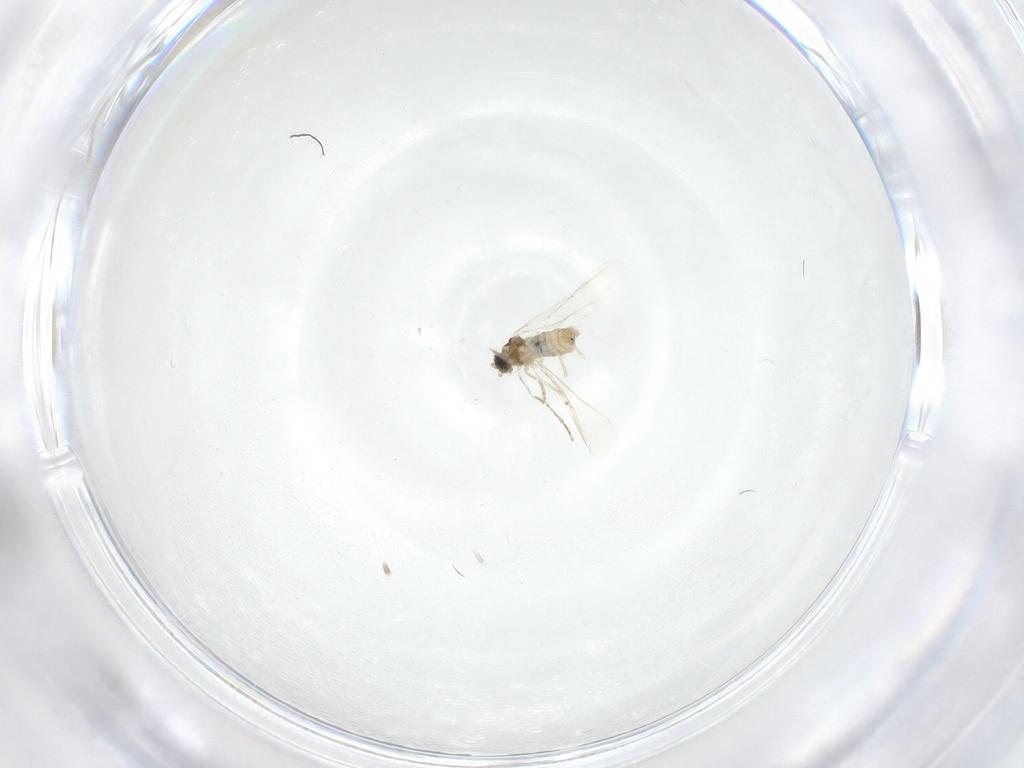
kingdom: Animalia
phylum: Arthropoda
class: Insecta
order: Diptera
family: Cecidomyiidae
